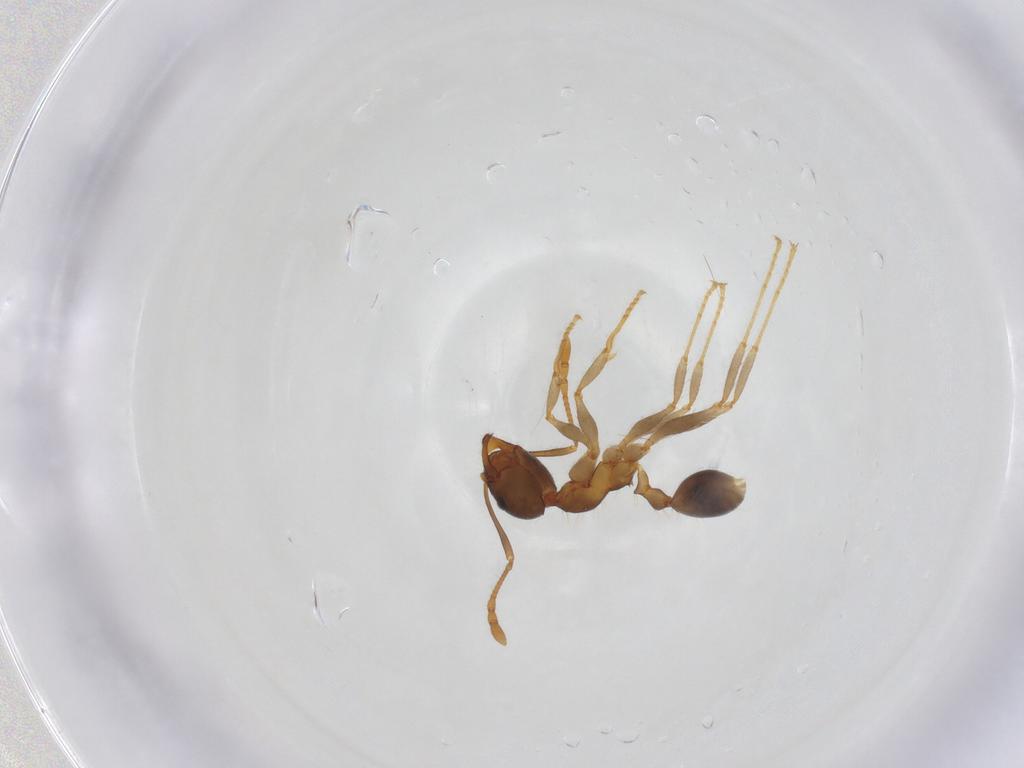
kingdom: Animalia
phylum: Arthropoda
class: Insecta
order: Hymenoptera
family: Formicidae
